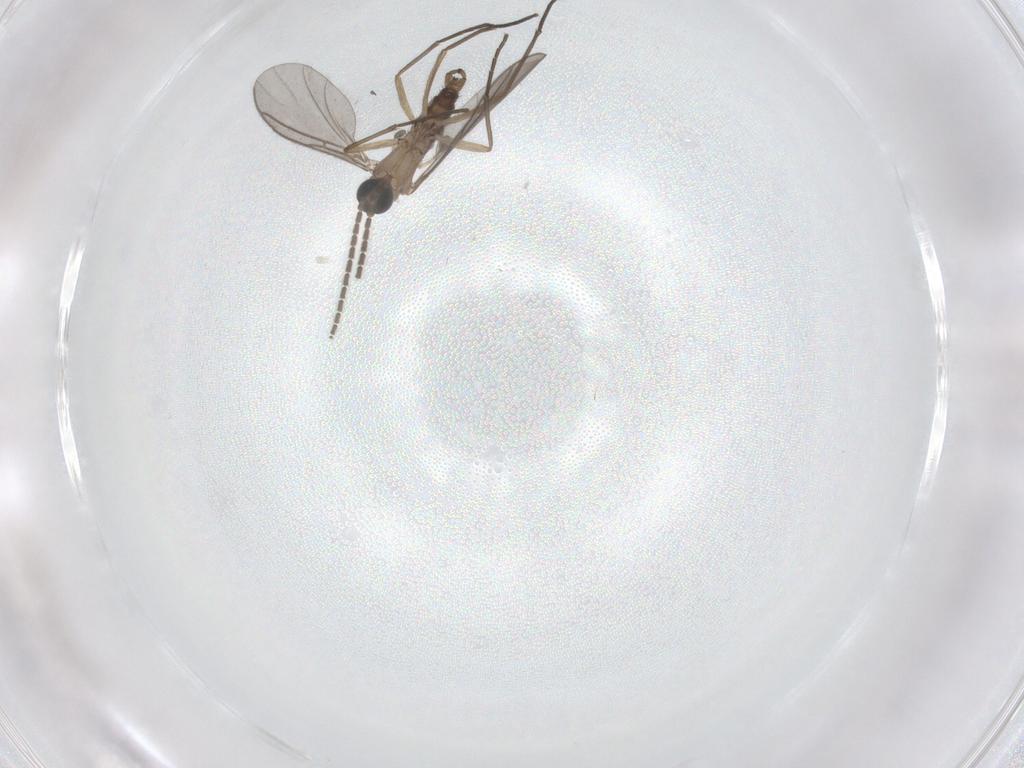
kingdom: Animalia
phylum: Arthropoda
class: Insecta
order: Diptera
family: Sciaridae
